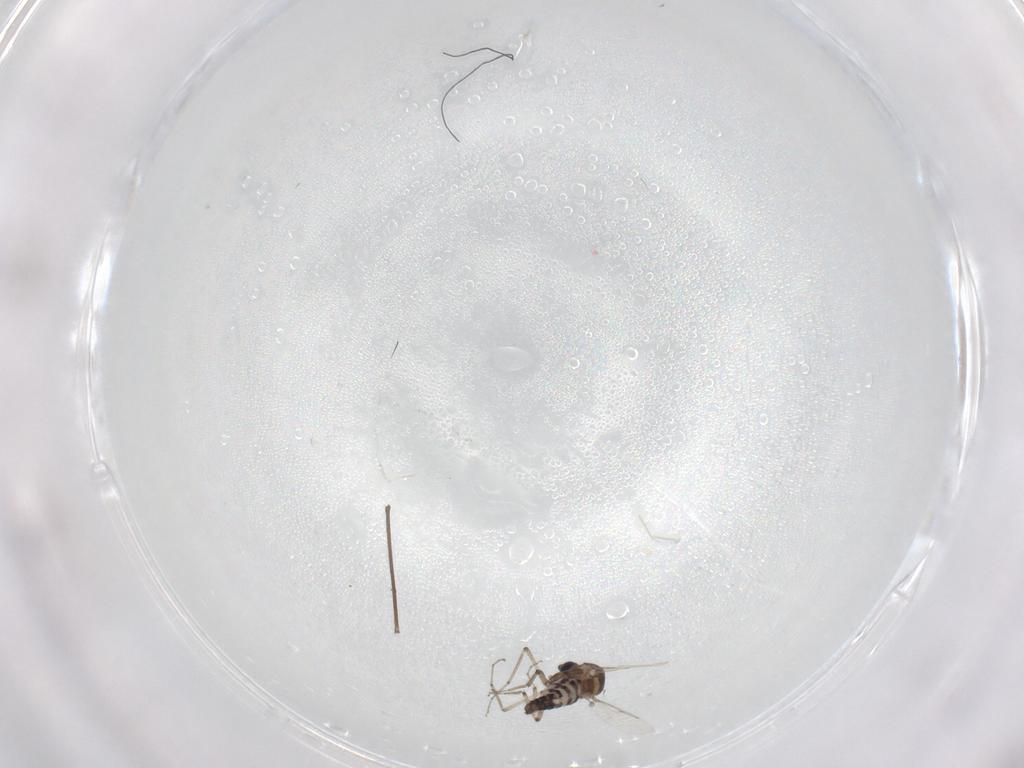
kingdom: Animalia
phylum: Arthropoda
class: Insecta
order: Diptera
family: Ceratopogonidae
